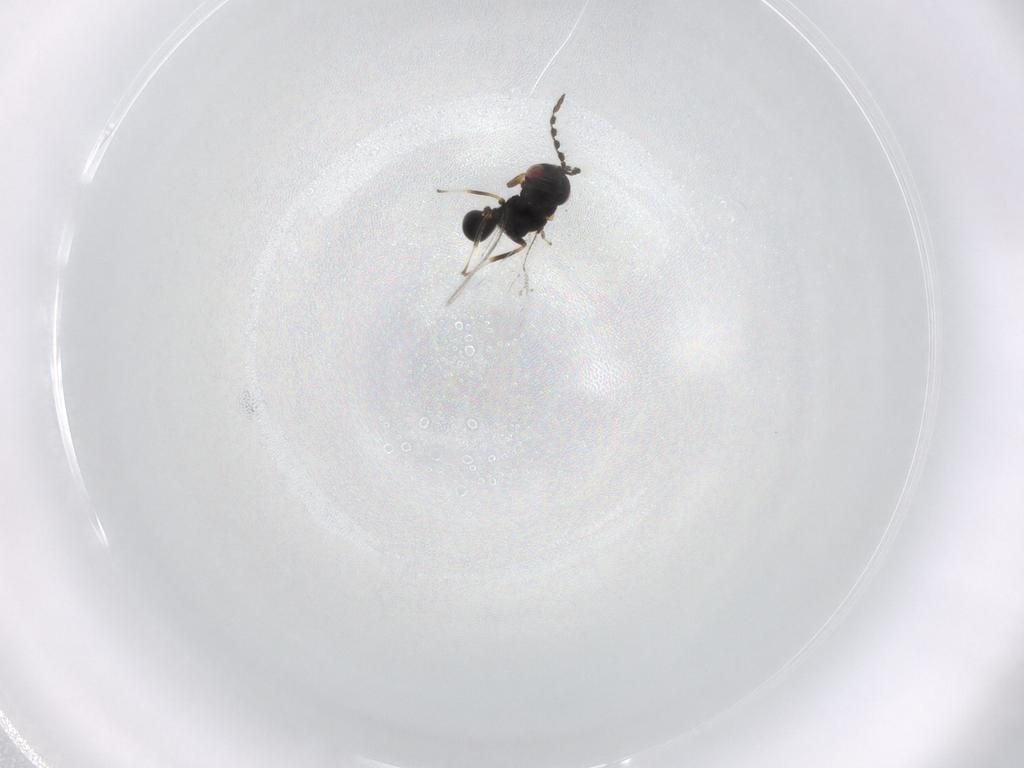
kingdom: Animalia
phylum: Arthropoda
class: Insecta
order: Hymenoptera
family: Eurytomidae
